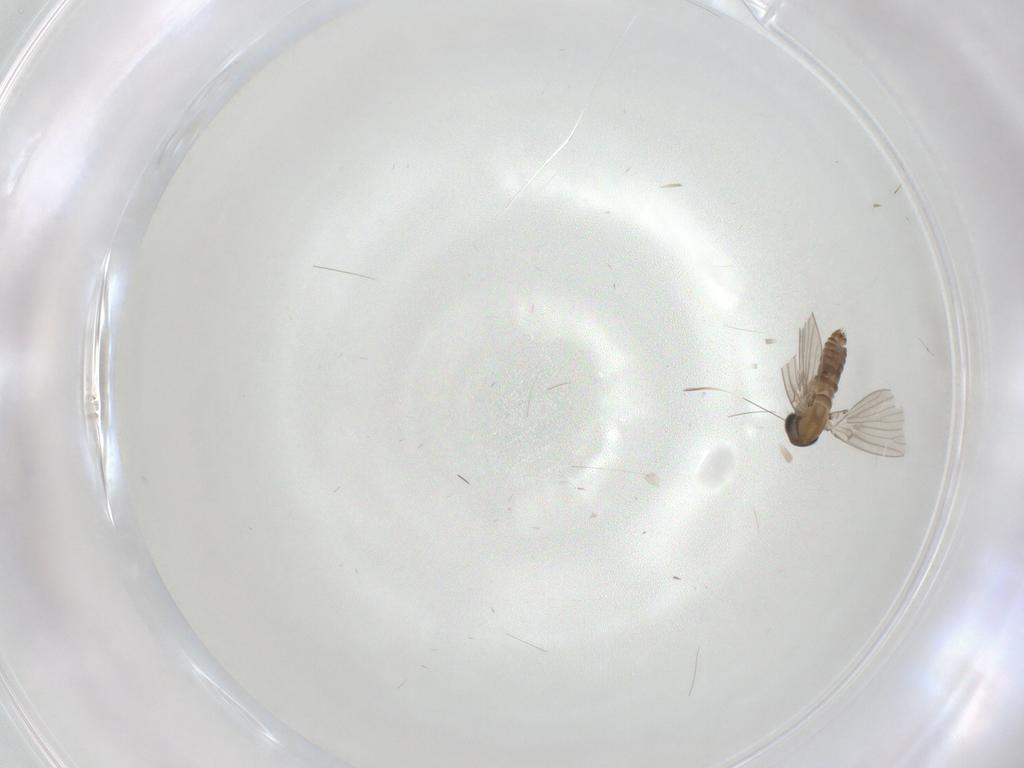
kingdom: Animalia
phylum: Arthropoda
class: Insecta
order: Diptera
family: Psychodidae
